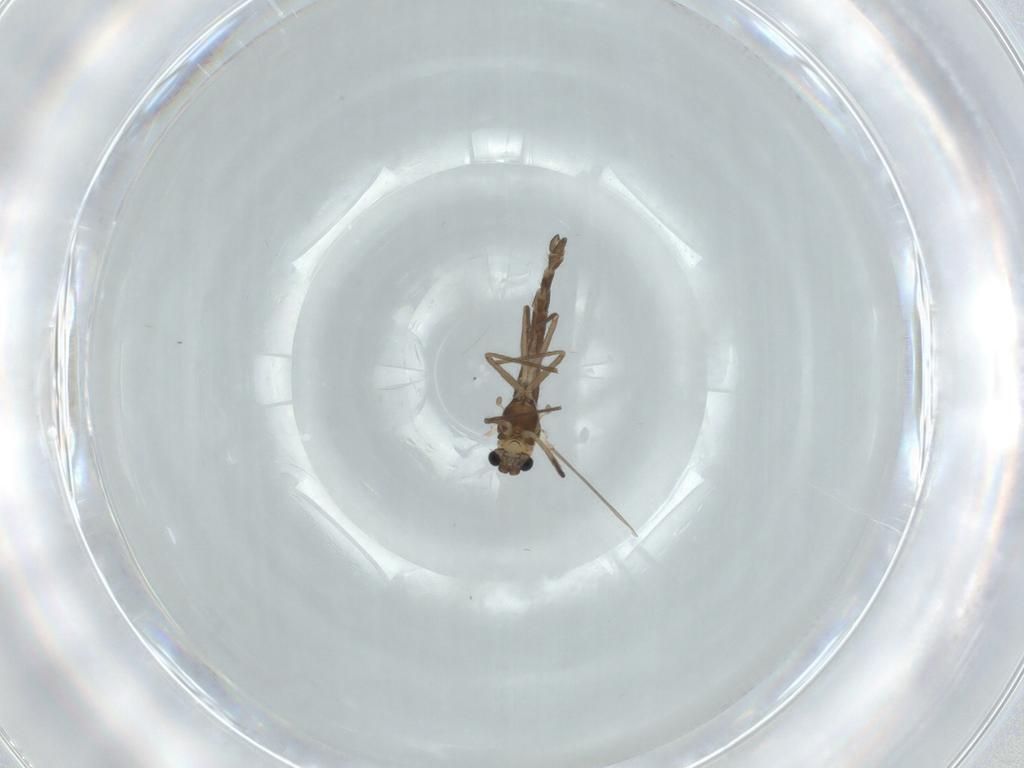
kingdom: Animalia
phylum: Arthropoda
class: Insecta
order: Diptera
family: Chironomidae
